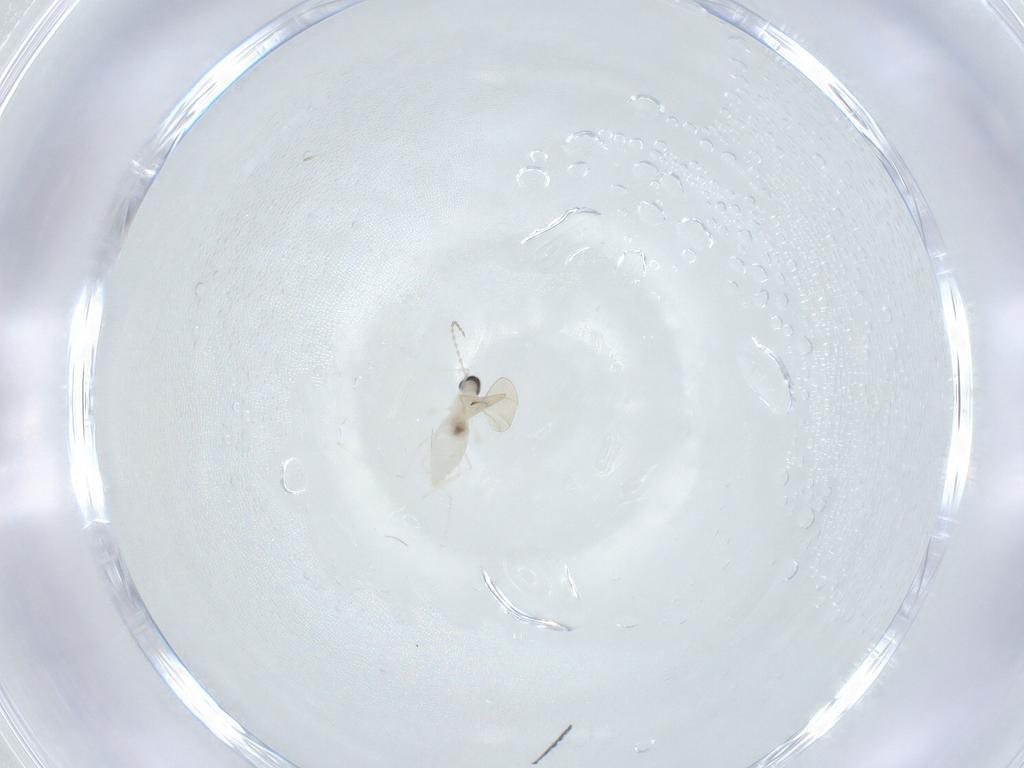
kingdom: Animalia
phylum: Arthropoda
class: Insecta
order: Diptera
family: Cecidomyiidae
